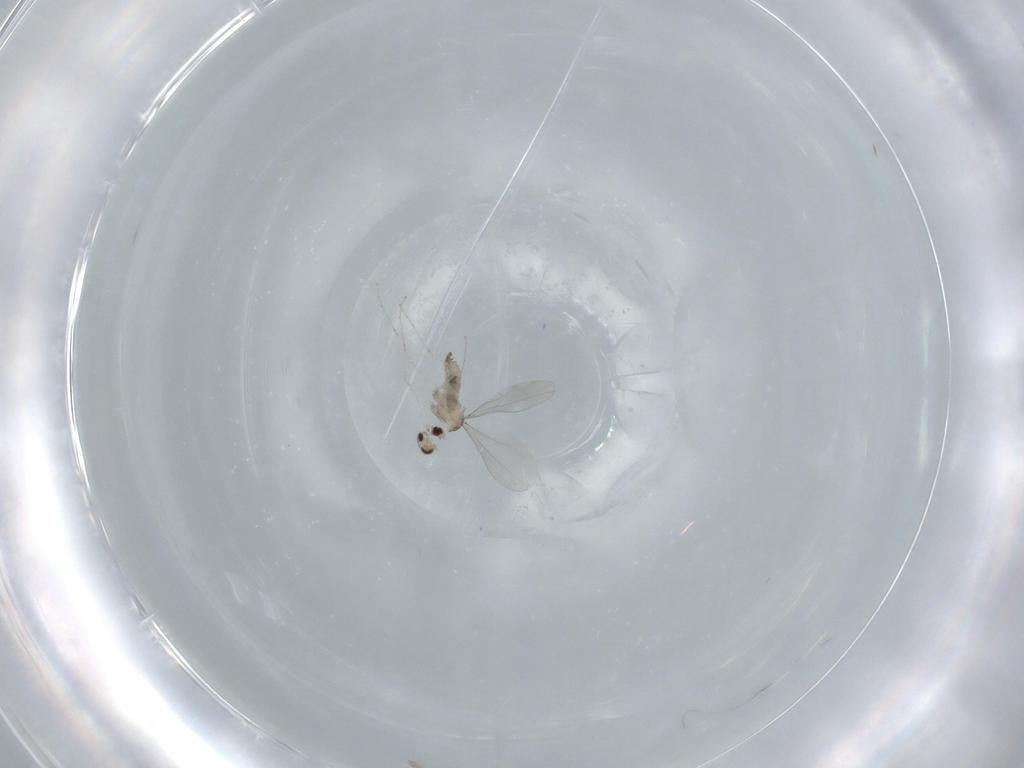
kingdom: Animalia
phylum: Arthropoda
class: Insecta
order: Diptera
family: Cecidomyiidae
